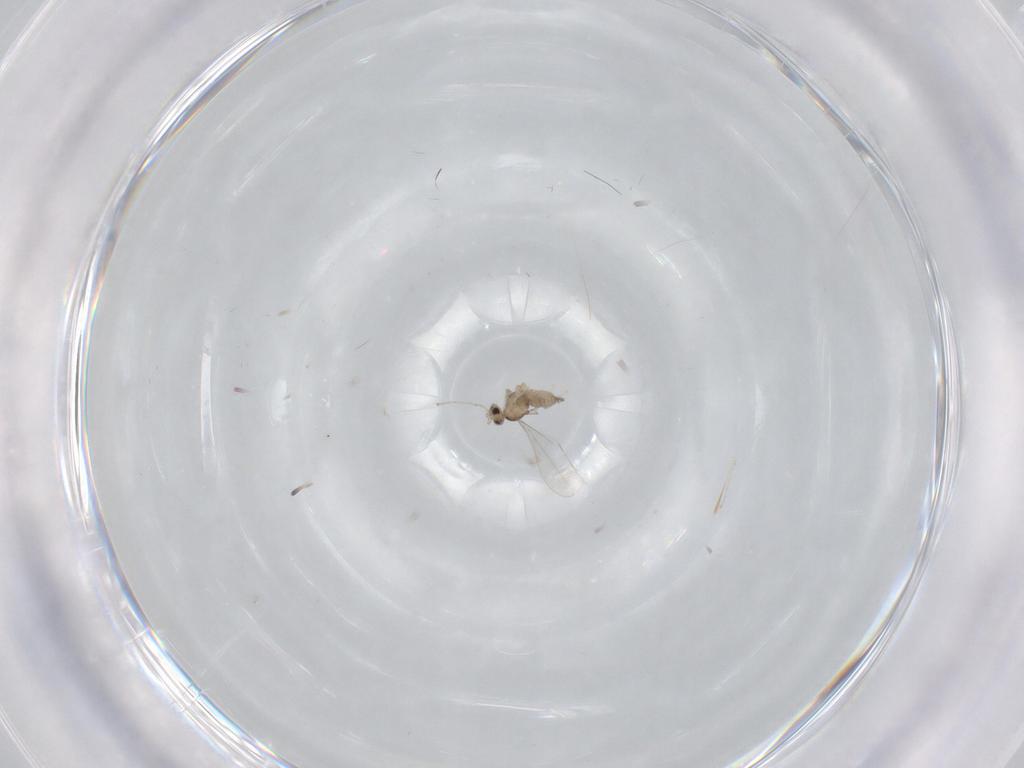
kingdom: Animalia
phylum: Arthropoda
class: Insecta
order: Diptera
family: Cecidomyiidae
